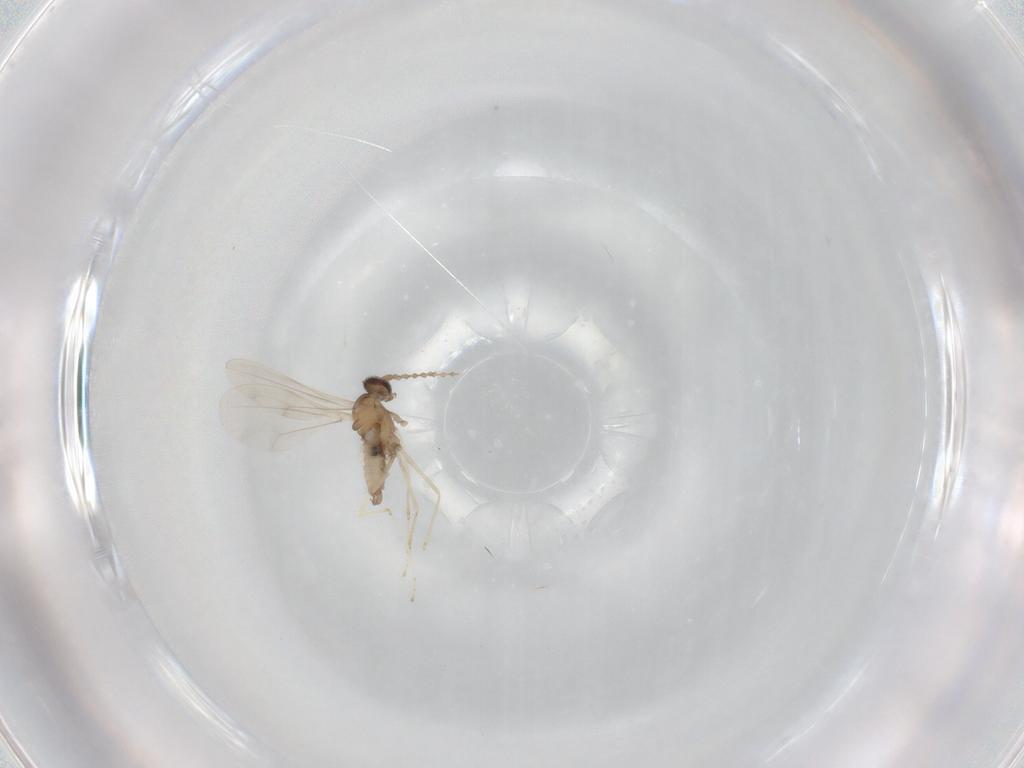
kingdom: Animalia
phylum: Arthropoda
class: Insecta
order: Diptera
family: Cecidomyiidae
